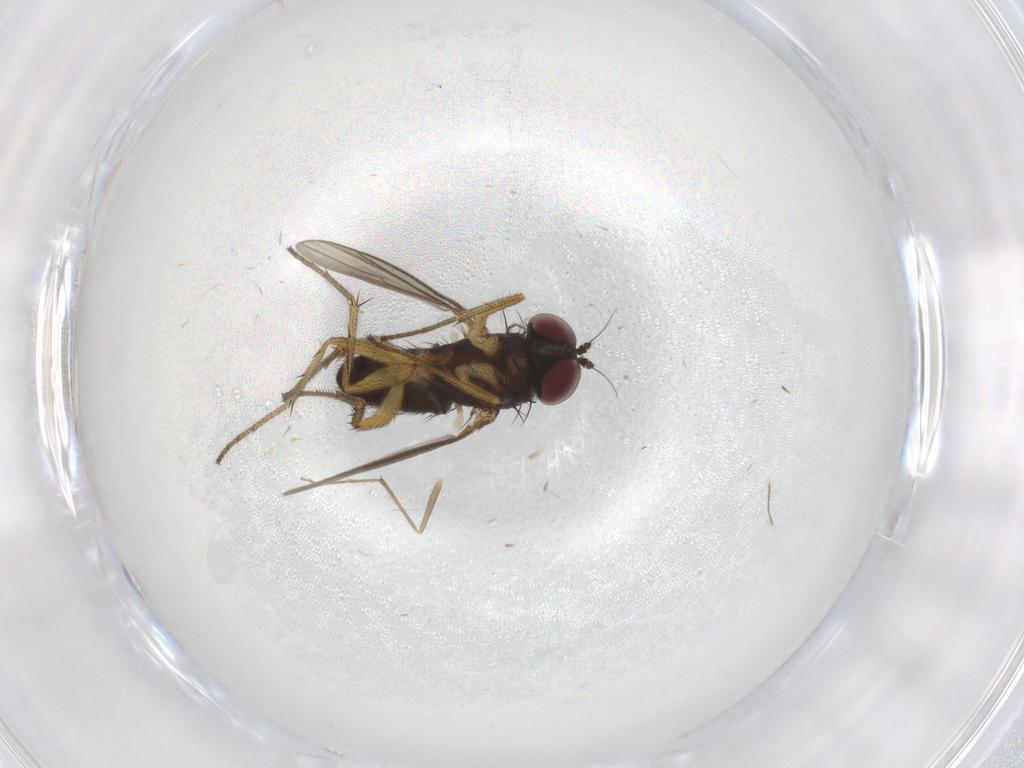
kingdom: Animalia
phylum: Arthropoda
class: Insecta
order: Diptera
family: Chironomidae
